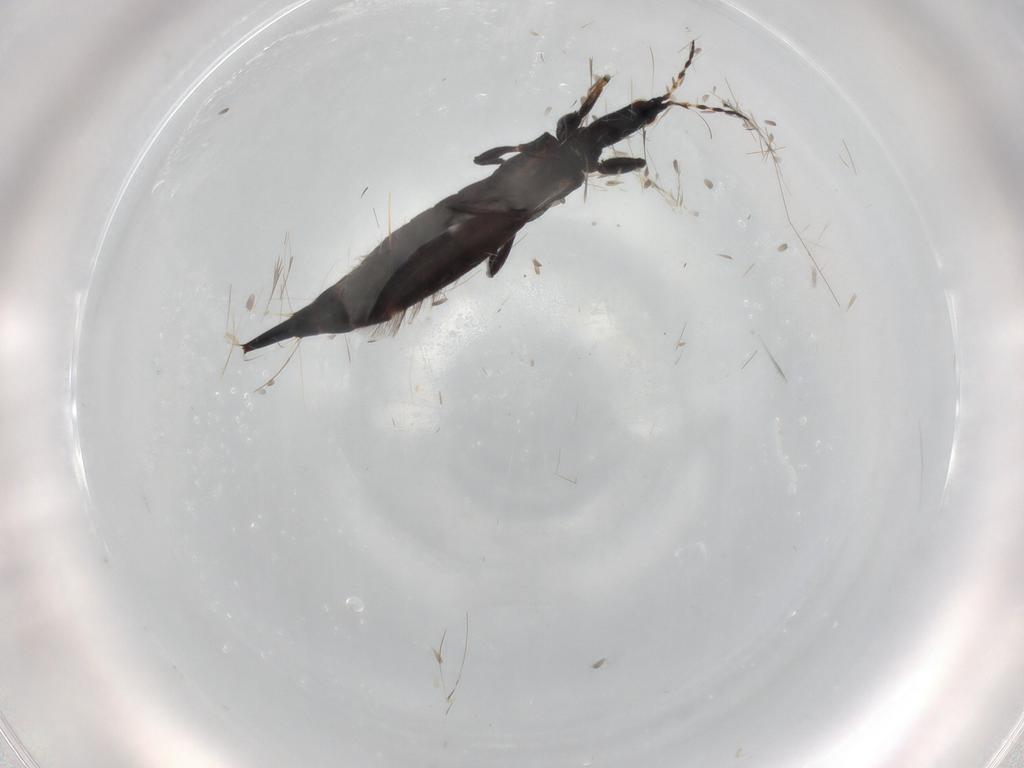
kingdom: Animalia
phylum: Arthropoda
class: Insecta
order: Thysanoptera
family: Phlaeothripidae
